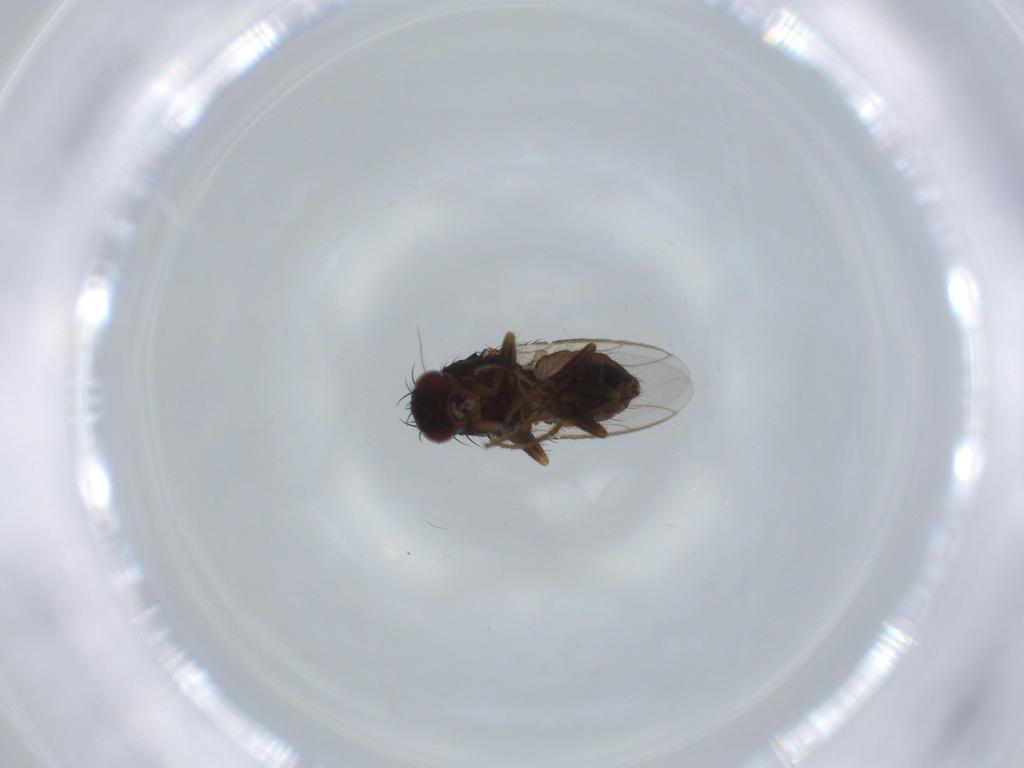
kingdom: Animalia
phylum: Arthropoda
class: Insecta
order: Diptera
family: Sphaeroceridae
